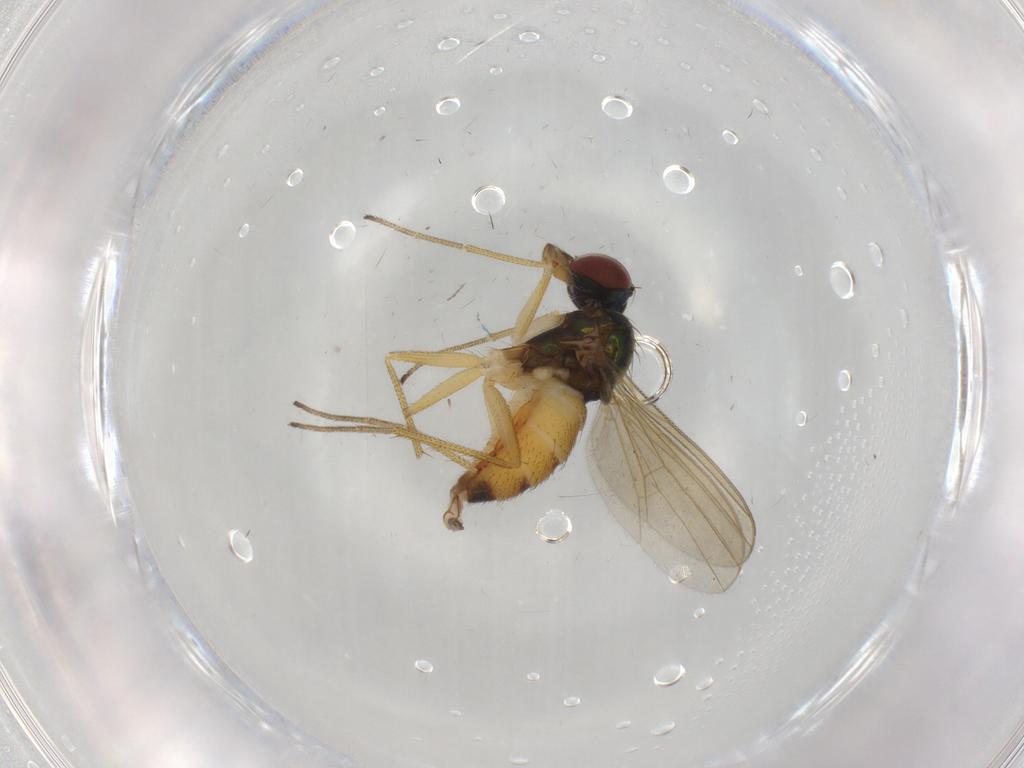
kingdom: Animalia
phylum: Arthropoda
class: Insecta
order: Diptera
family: Dolichopodidae
